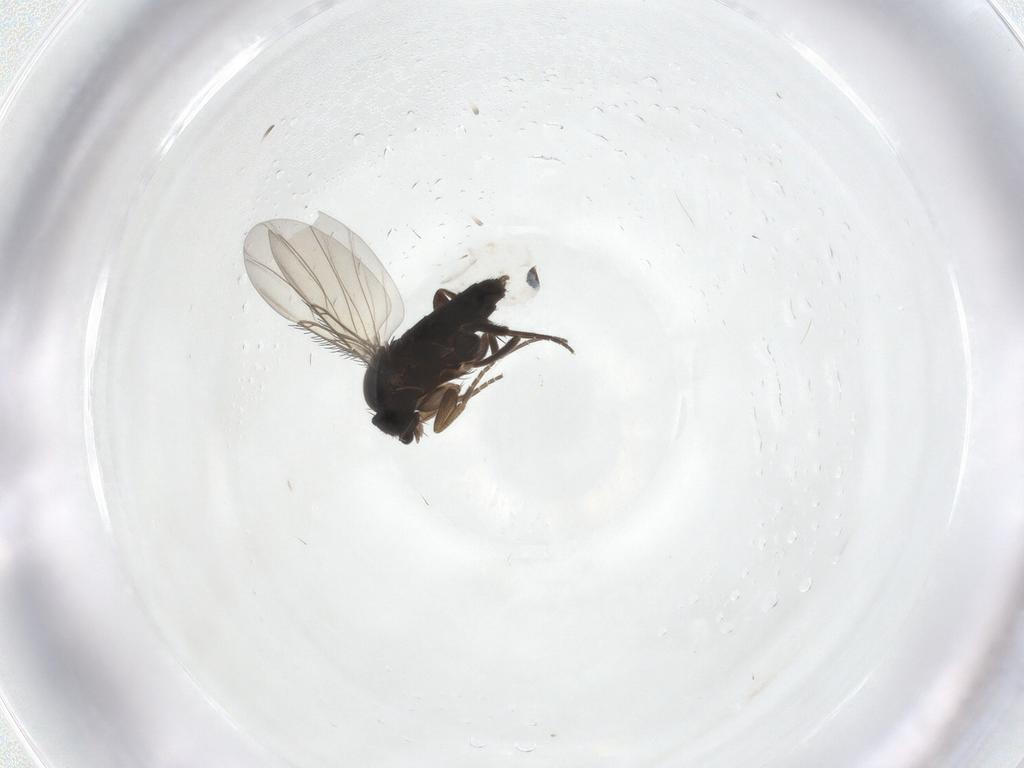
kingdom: Animalia
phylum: Arthropoda
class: Insecta
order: Diptera
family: Phoridae
